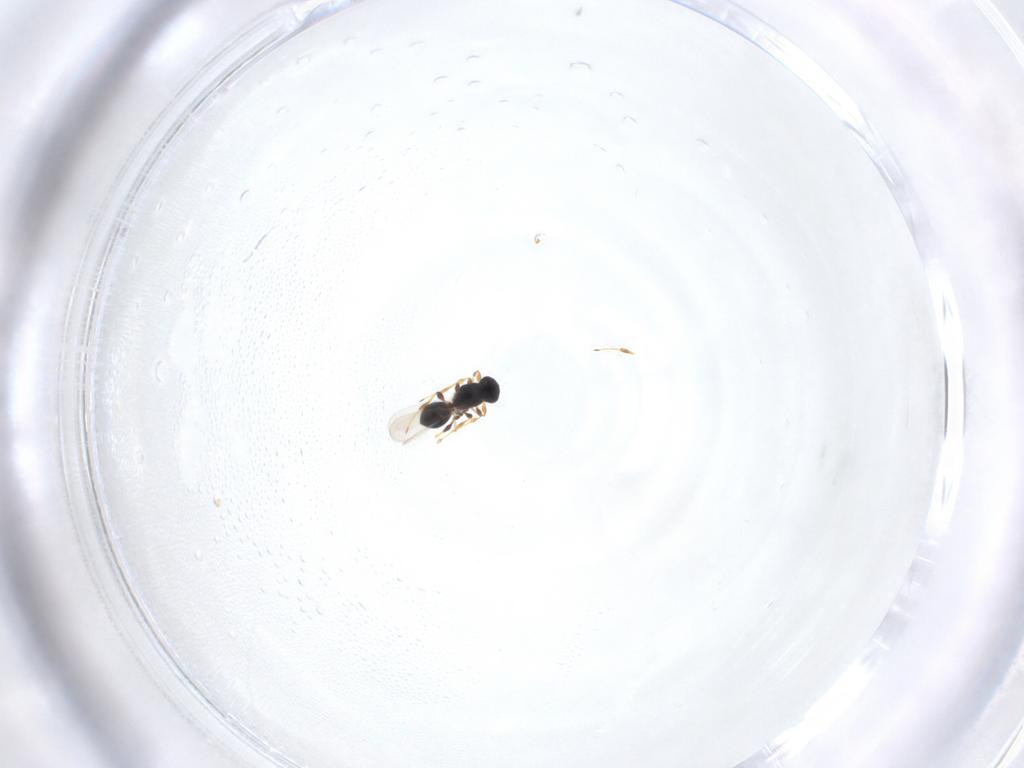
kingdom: Animalia
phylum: Arthropoda
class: Insecta
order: Hymenoptera
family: Platygastridae
